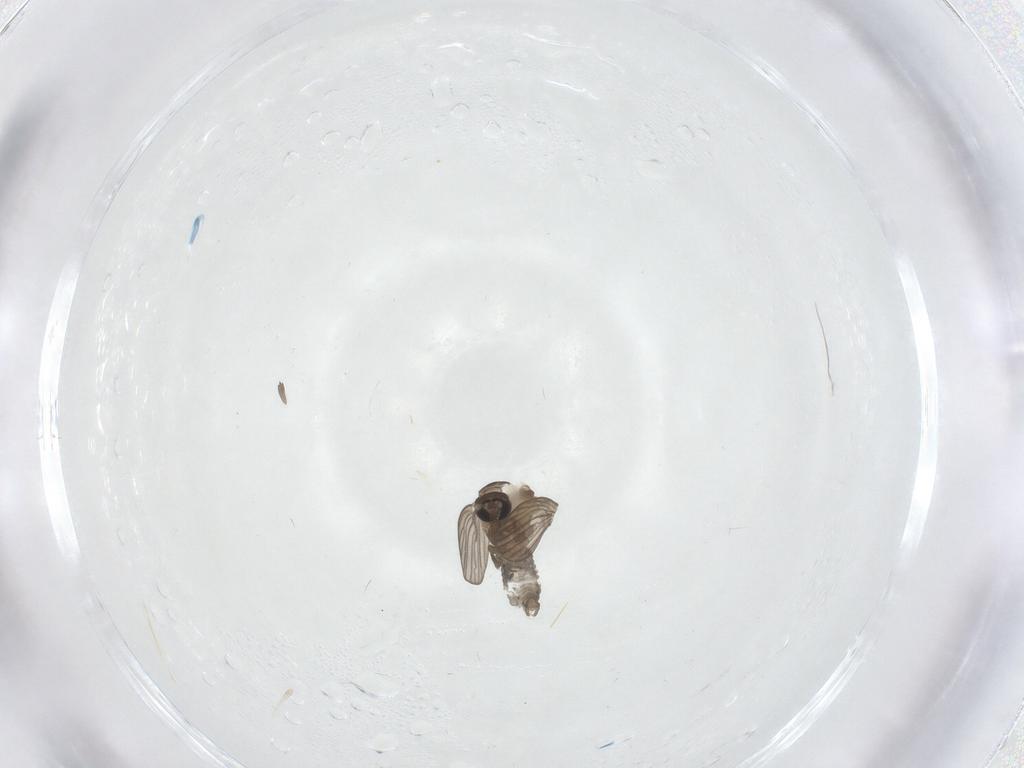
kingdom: Animalia
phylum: Arthropoda
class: Insecta
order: Diptera
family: Psychodidae
